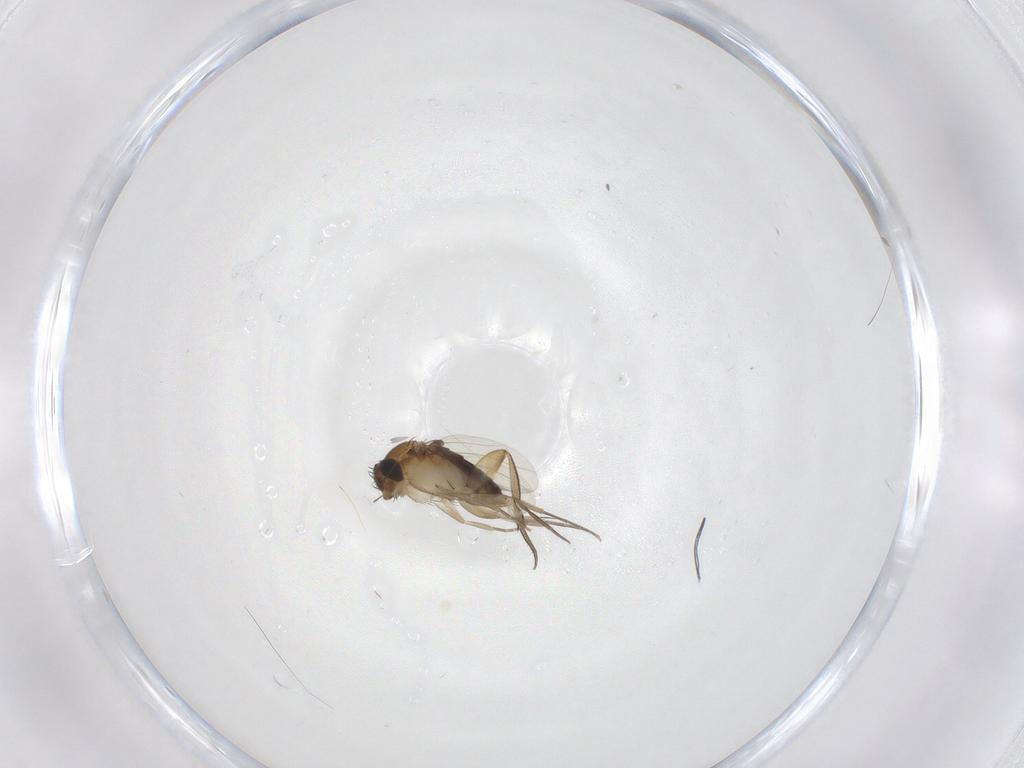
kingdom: Animalia
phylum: Arthropoda
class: Insecta
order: Diptera
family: Phoridae
